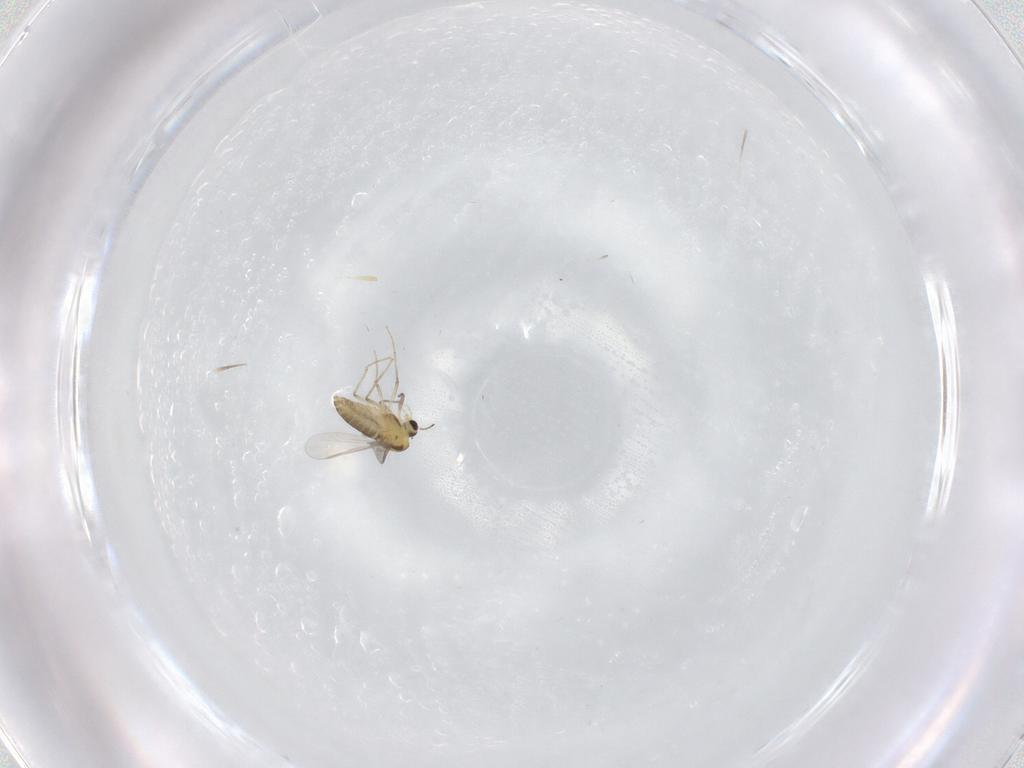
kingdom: Animalia
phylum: Arthropoda
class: Insecta
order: Diptera
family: Chironomidae
